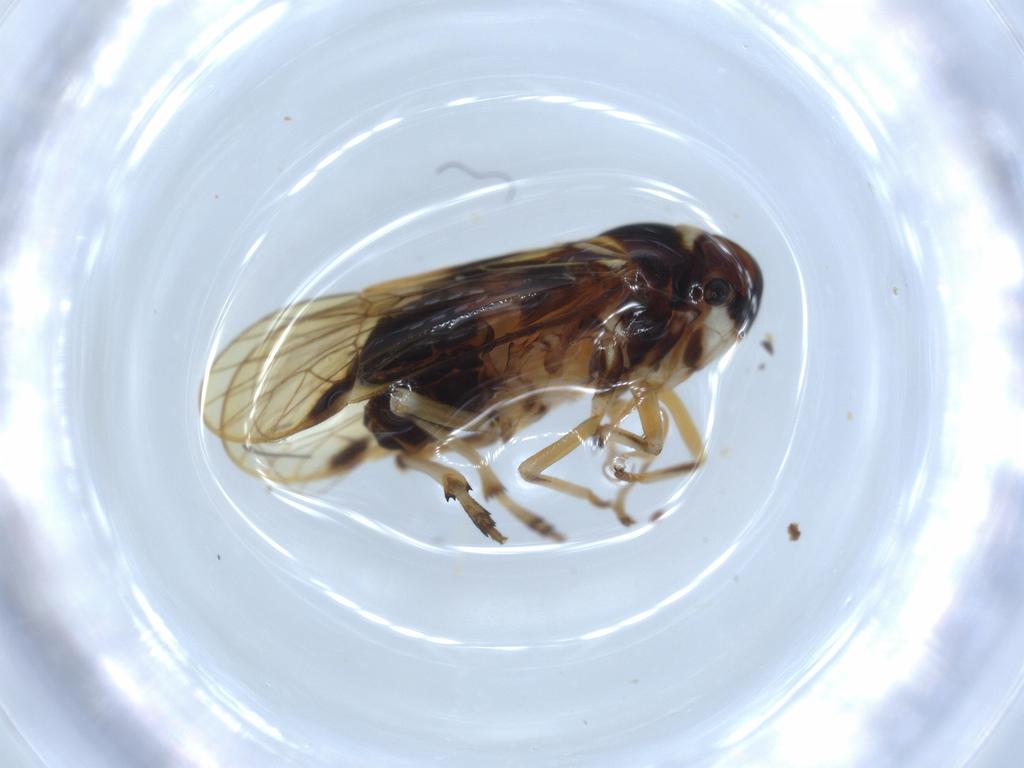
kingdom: Animalia
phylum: Arthropoda
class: Insecta
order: Hemiptera
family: Kinnaridae
